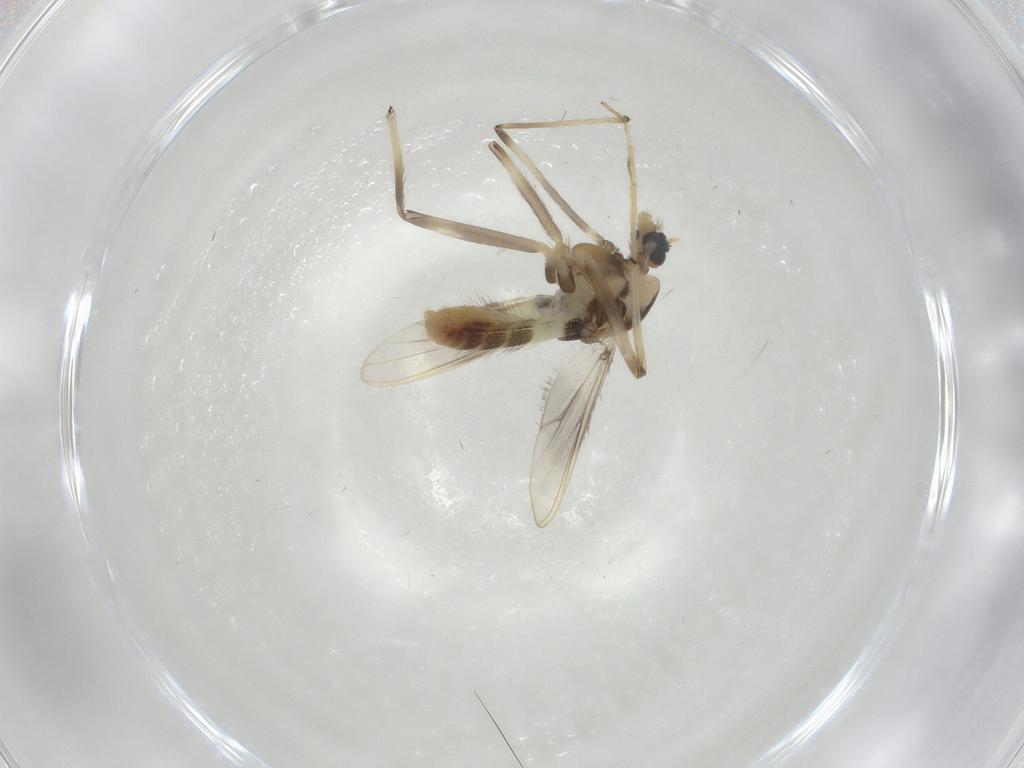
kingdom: Animalia
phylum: Arthropoda
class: Insecta
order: Diptera
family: Chironomidae
